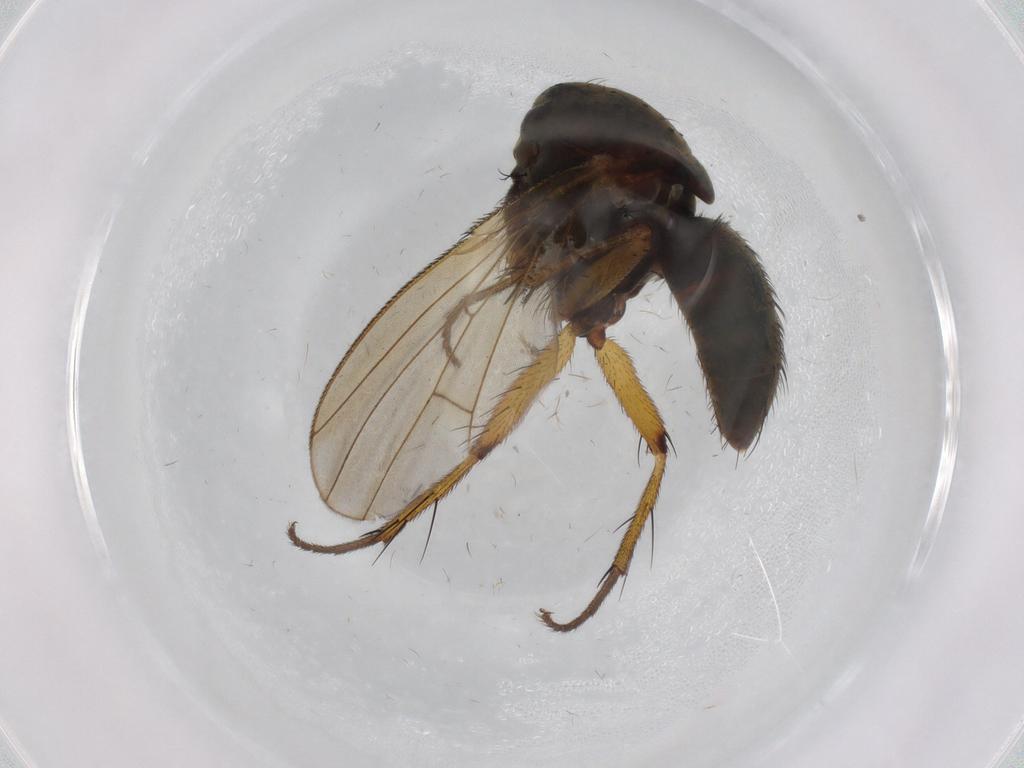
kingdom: Animalia
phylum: Arthropoda
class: Insecta
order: Diptera
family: Muscidae
